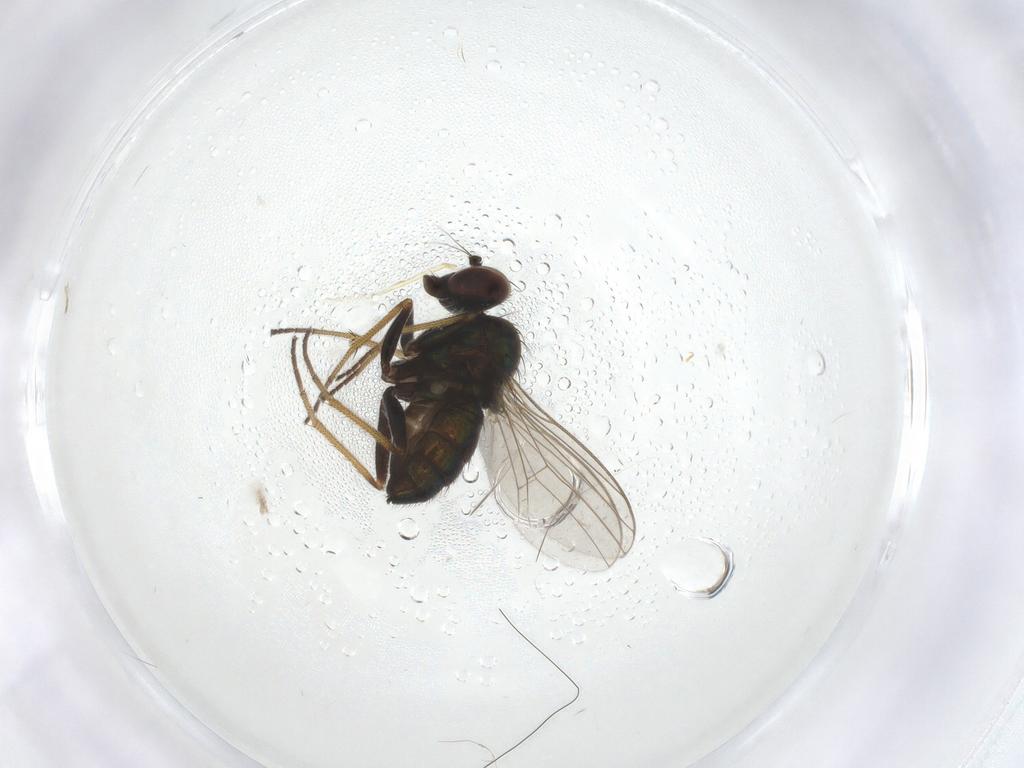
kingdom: Animalia
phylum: Arthropoda
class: Insecta
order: Diptera
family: Dolichopodidae
